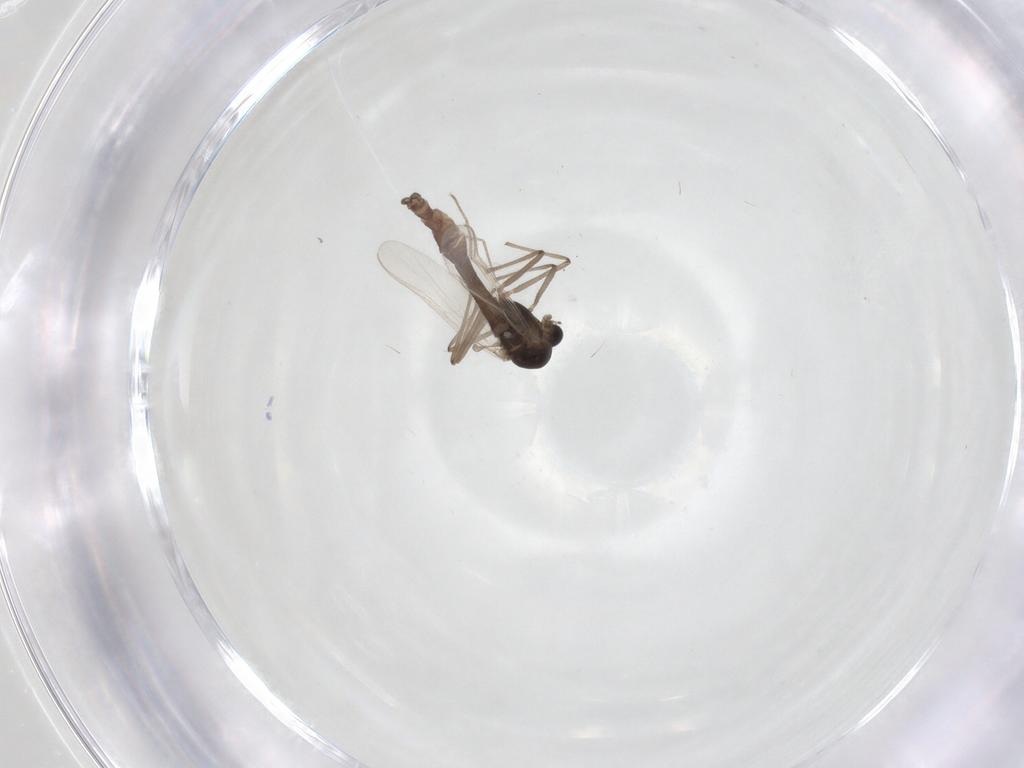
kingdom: Animalia
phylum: Arthropoda
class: Insecta
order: Diptera
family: Chironomidae
